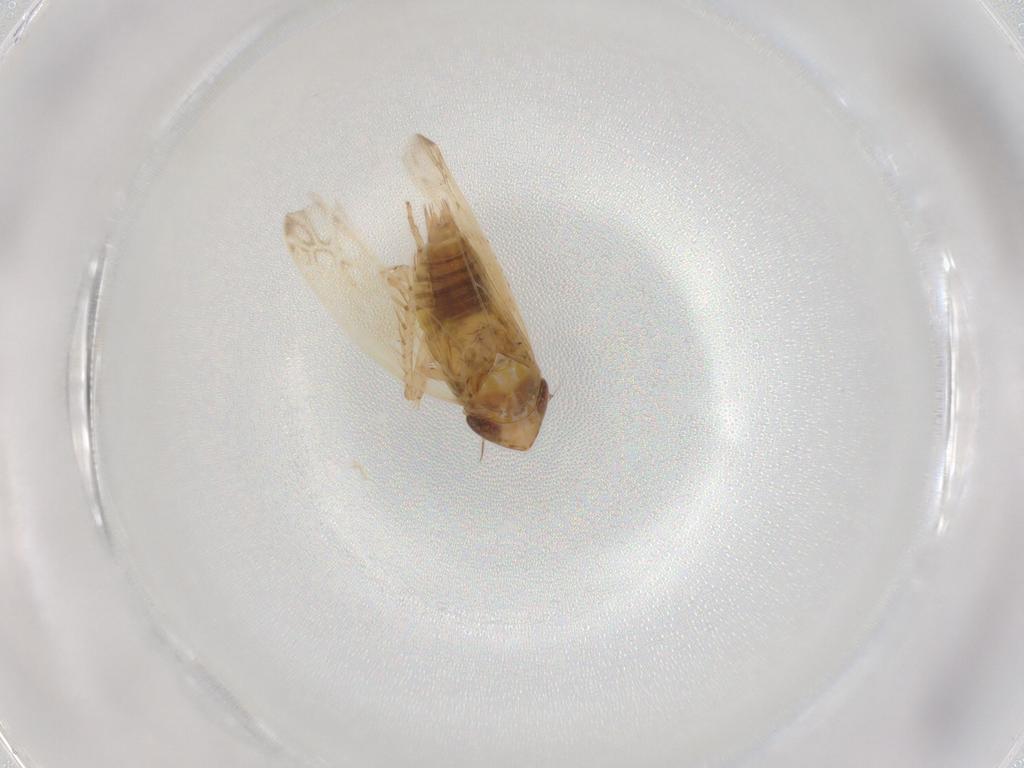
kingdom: Animalia
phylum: Arthropoda
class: Insecta
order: Hemiptera
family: Cicadellidae
